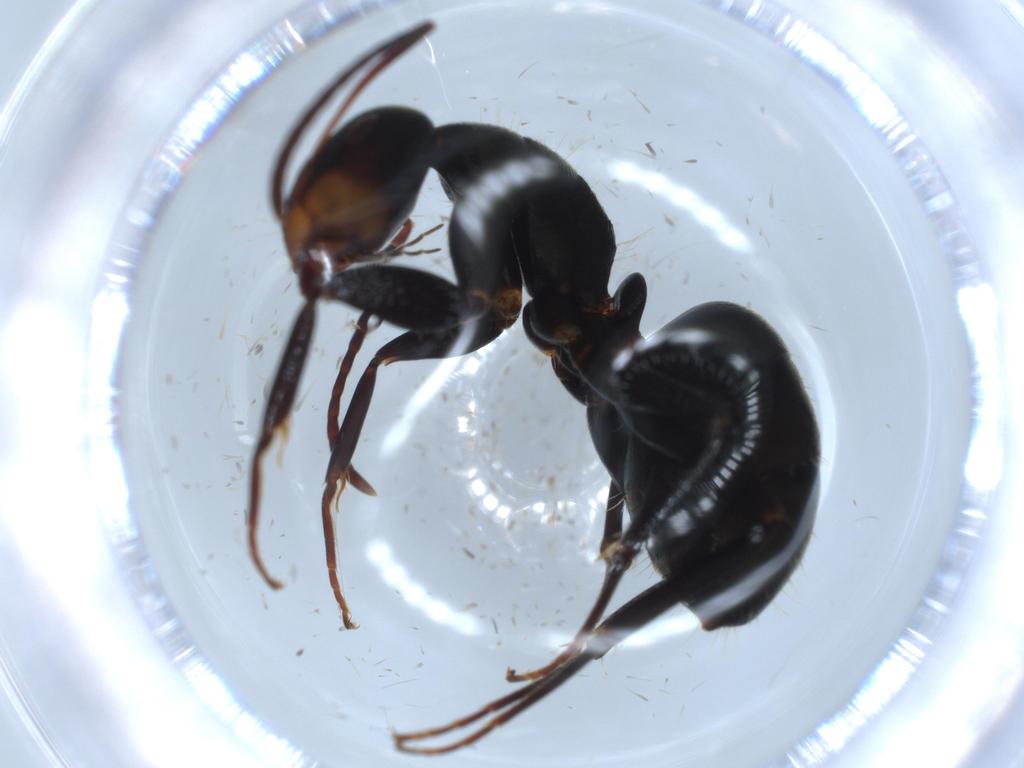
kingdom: Animalia
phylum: Arthropoda
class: Insecta
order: Hymenoptera
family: Formicidae
